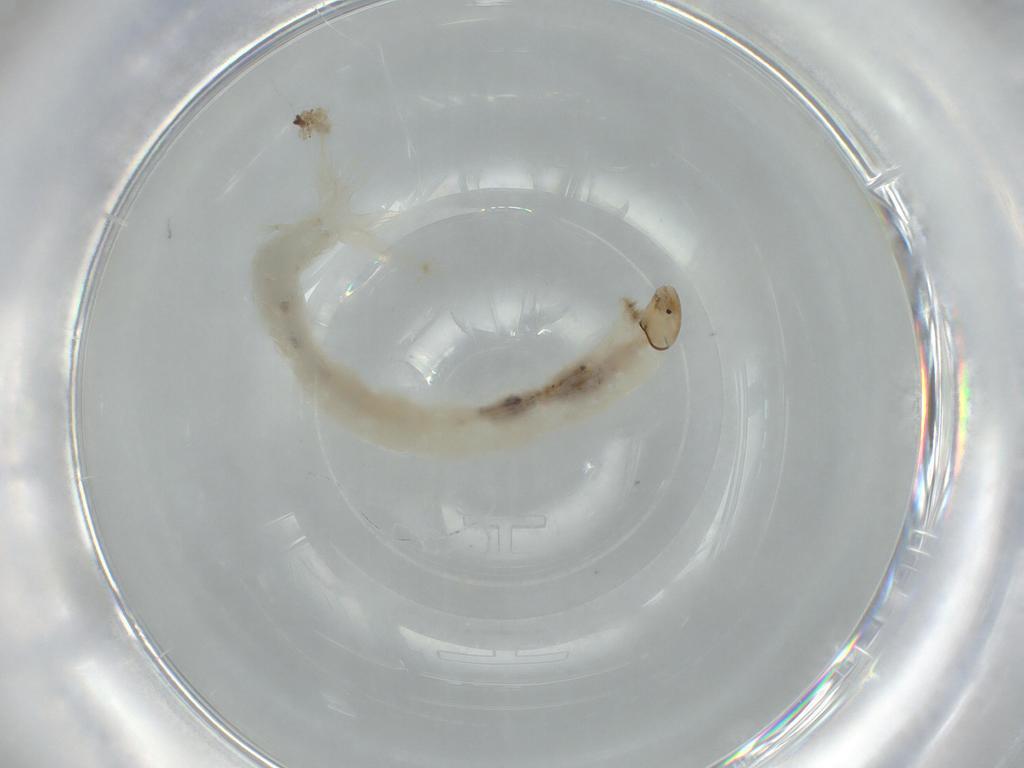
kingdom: Animalia
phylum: Arthropoda
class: Insecta
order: Diptera
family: Chironomidae
